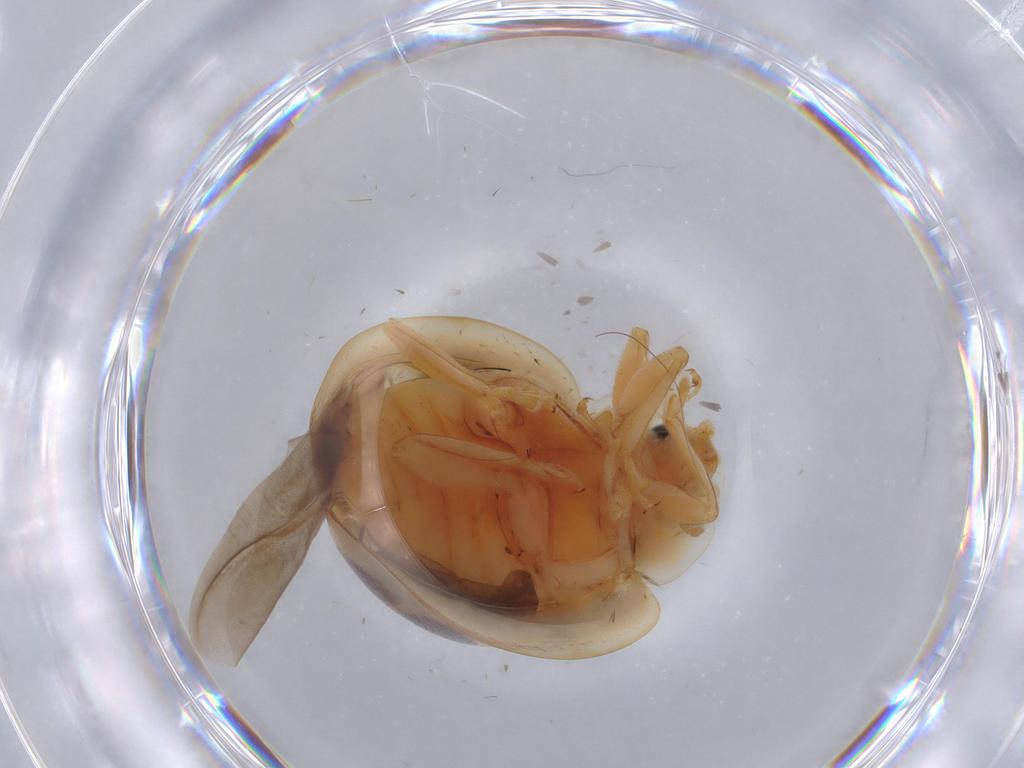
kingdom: Animalia
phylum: Arthropoda
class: Insecta
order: Coleoptera
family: Coccinellidae
